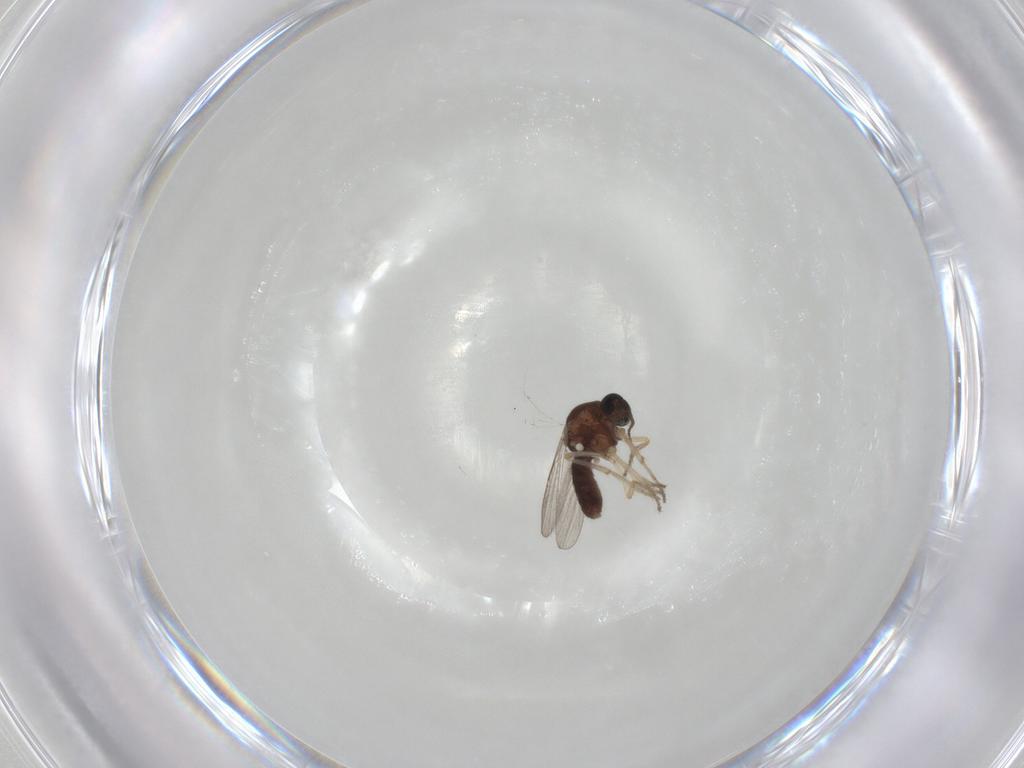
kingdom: Animalia
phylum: Arthropoda
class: Insecta
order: Diptera
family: Ceratopogonidae
